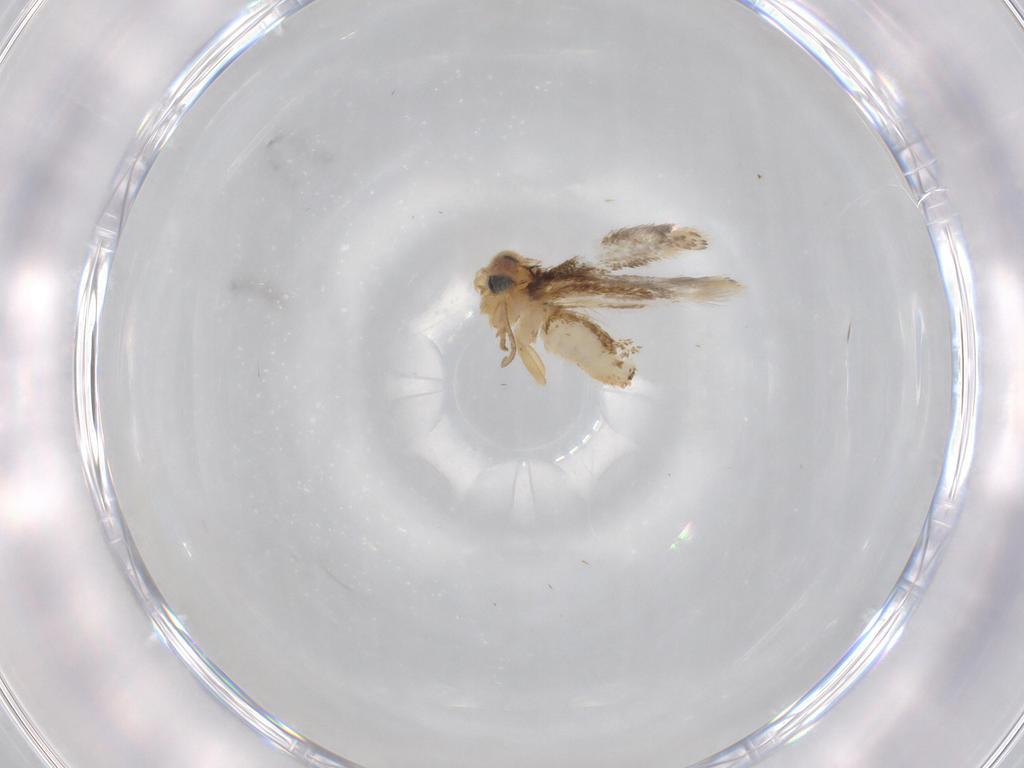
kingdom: Animalia
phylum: Arthropoda
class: Insecta
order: Lepidoptera
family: Nepticulidae
